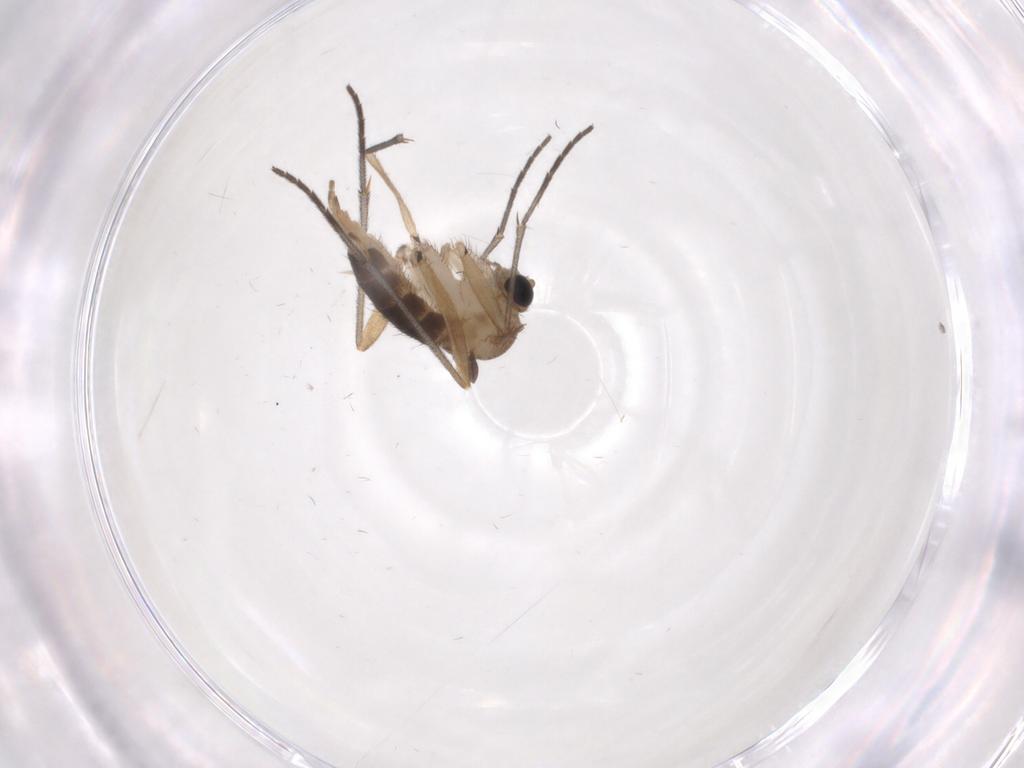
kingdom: Animalia
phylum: Arthropoda
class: Insecta
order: Diptera
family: Sciaridae
